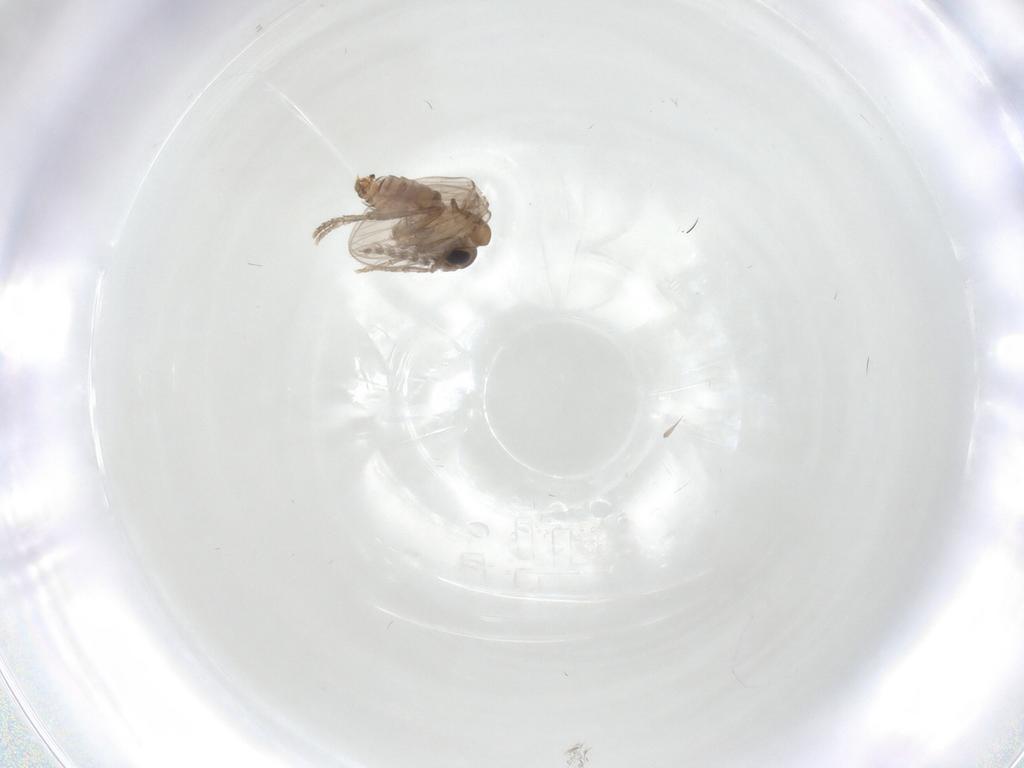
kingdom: Animalia
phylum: Arthropoda
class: Insecta
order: Diptera
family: Sciaridae
